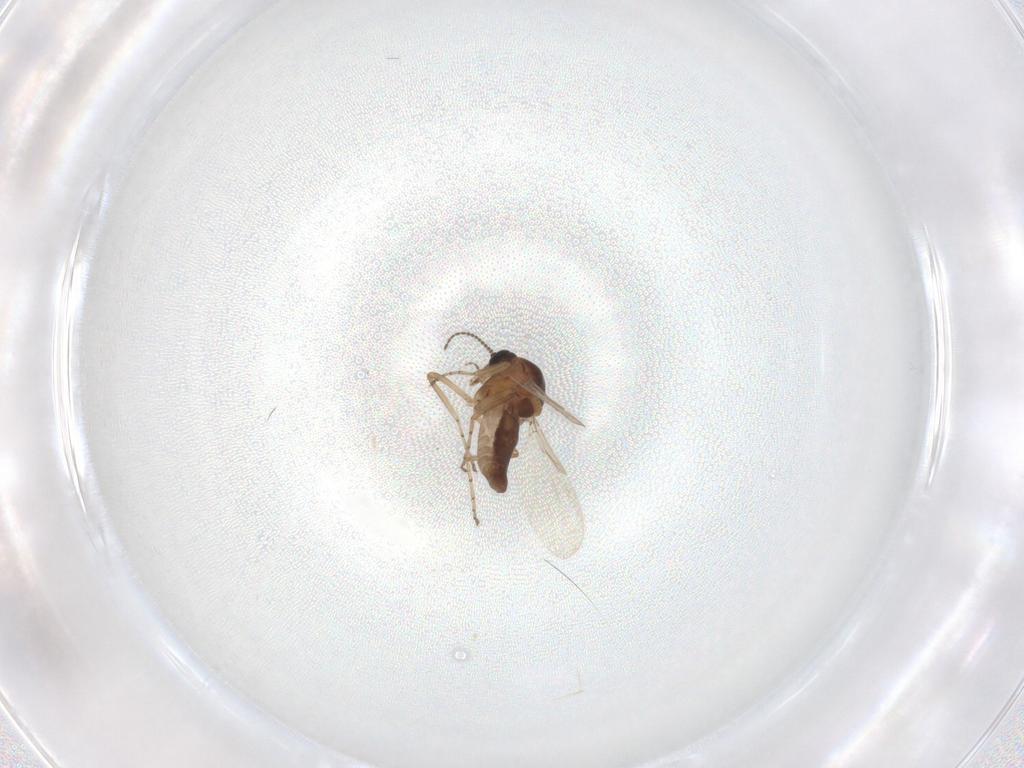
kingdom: Animalia
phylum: Arthropoda
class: Insecta
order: Diptera
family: Ceratopogonidae
